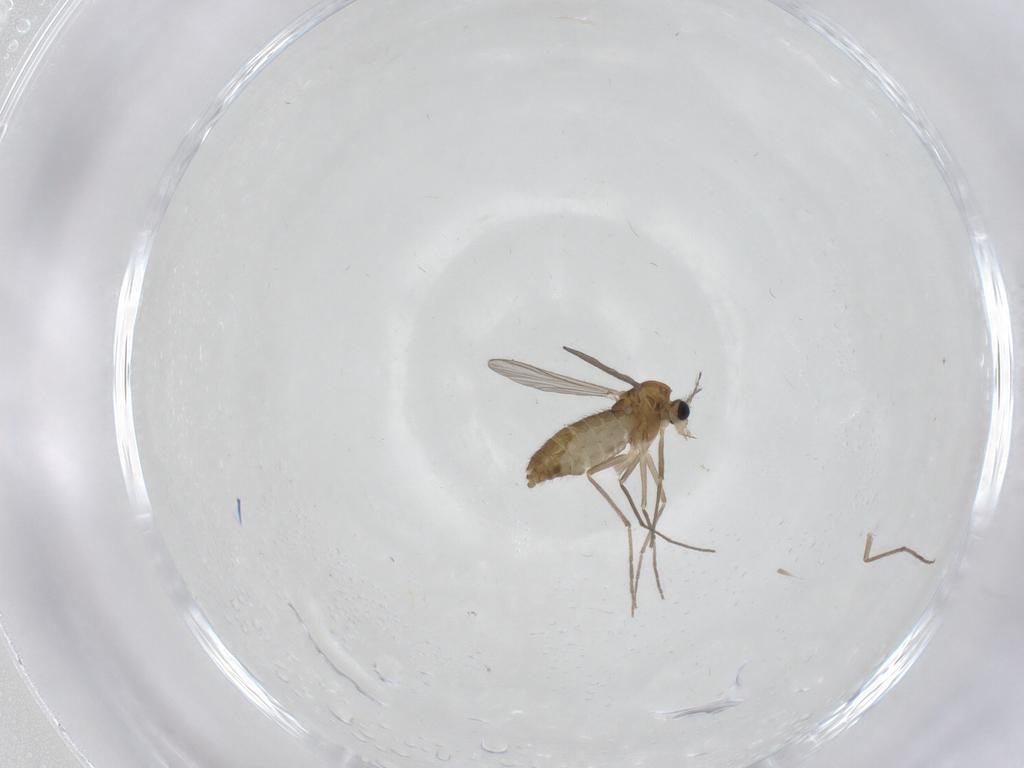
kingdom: Animalia
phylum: Arthropoda
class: Insecta
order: Diptera
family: Chironomidae
